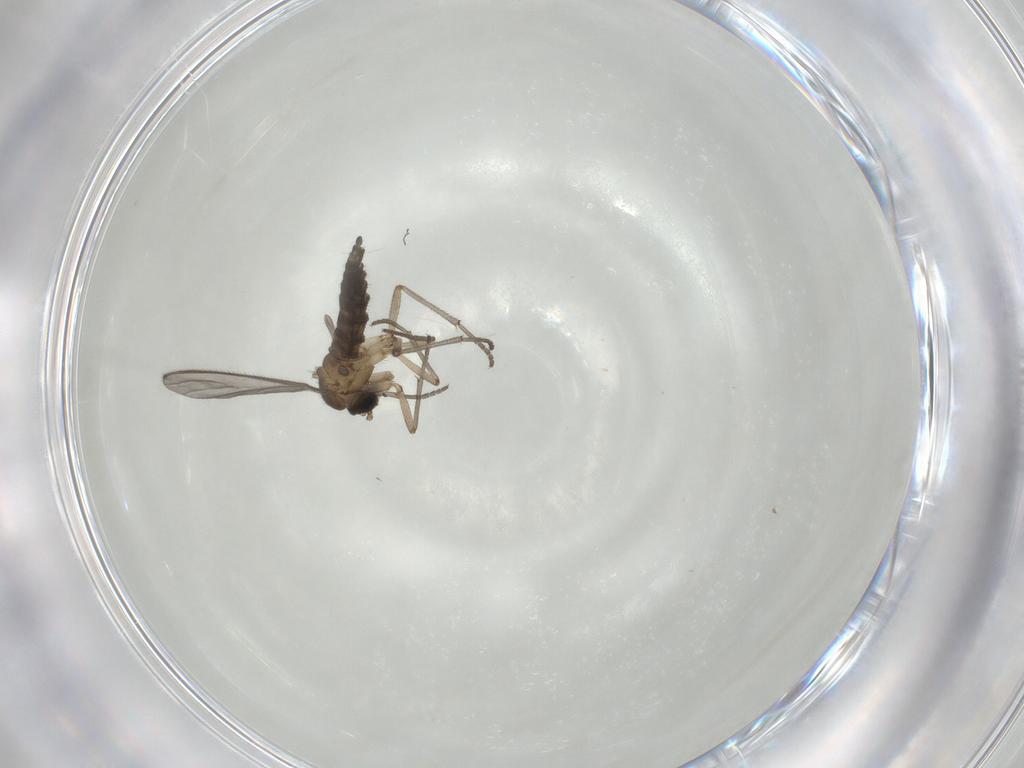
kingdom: Animalia
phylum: Arthropoda
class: Insecta
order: Diptera
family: Sciaridae
